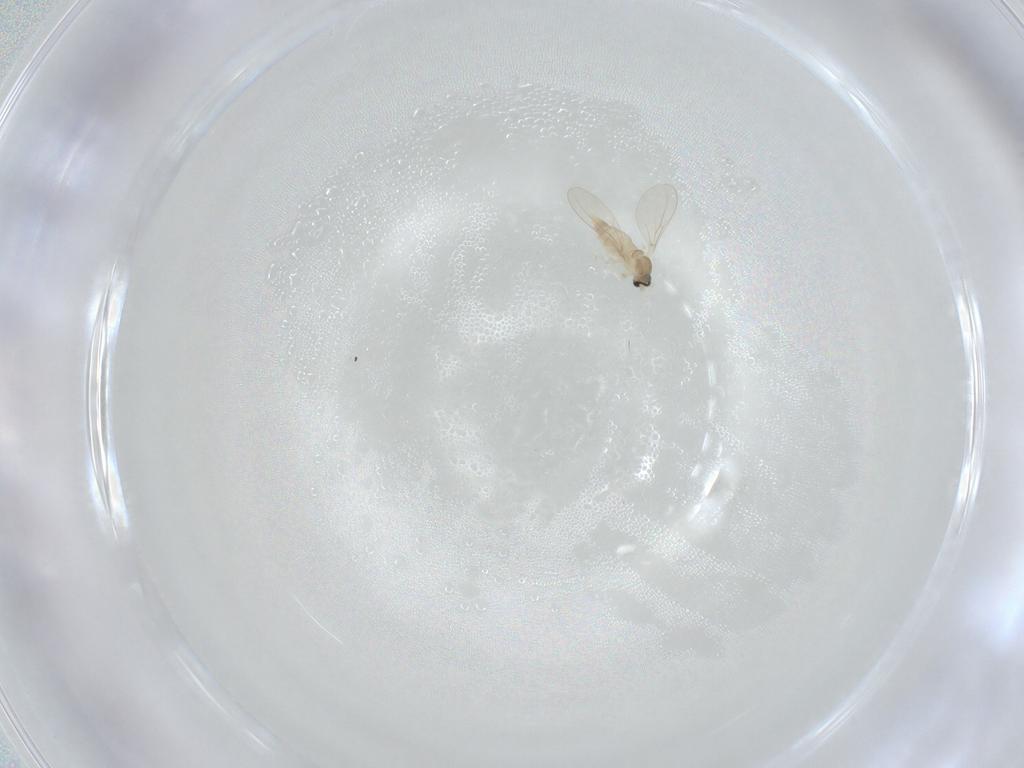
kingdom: Animalia
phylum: Arthropoda
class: Insecta
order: Diptera
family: Cecidomyiidae
